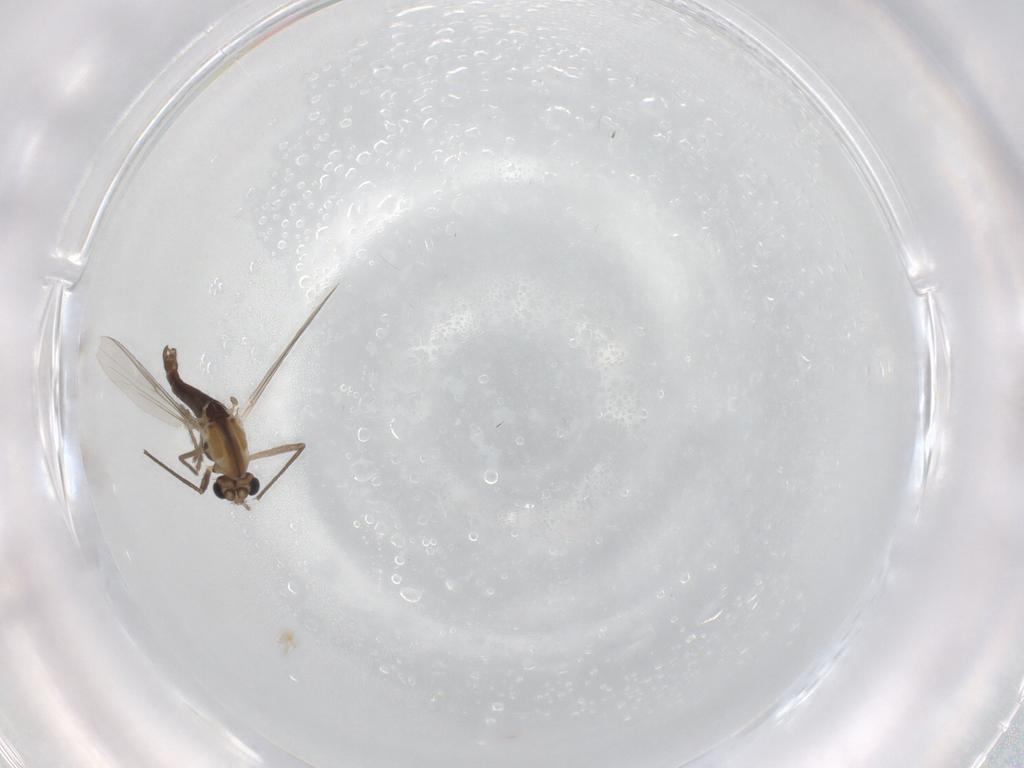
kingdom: Animalia
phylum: Arthropoda
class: Insecta
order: Diptera
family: Chironomidae
